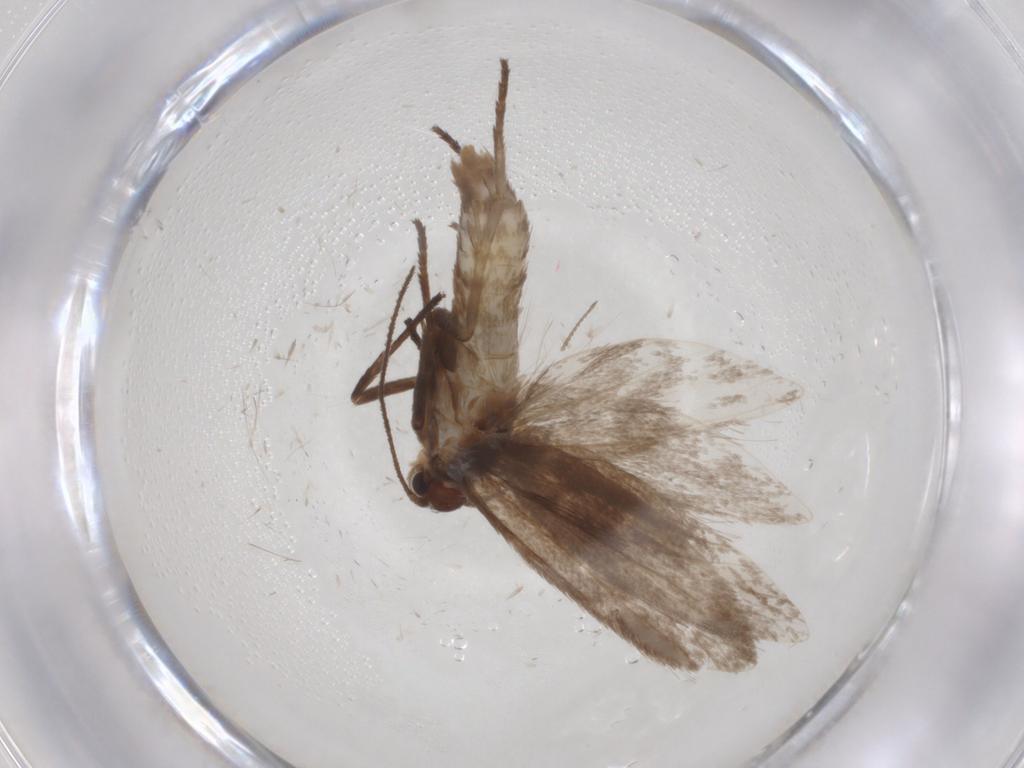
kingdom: Animalia
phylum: Arthropoda
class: Insecta
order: Lepidoptera
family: Limacodidae
